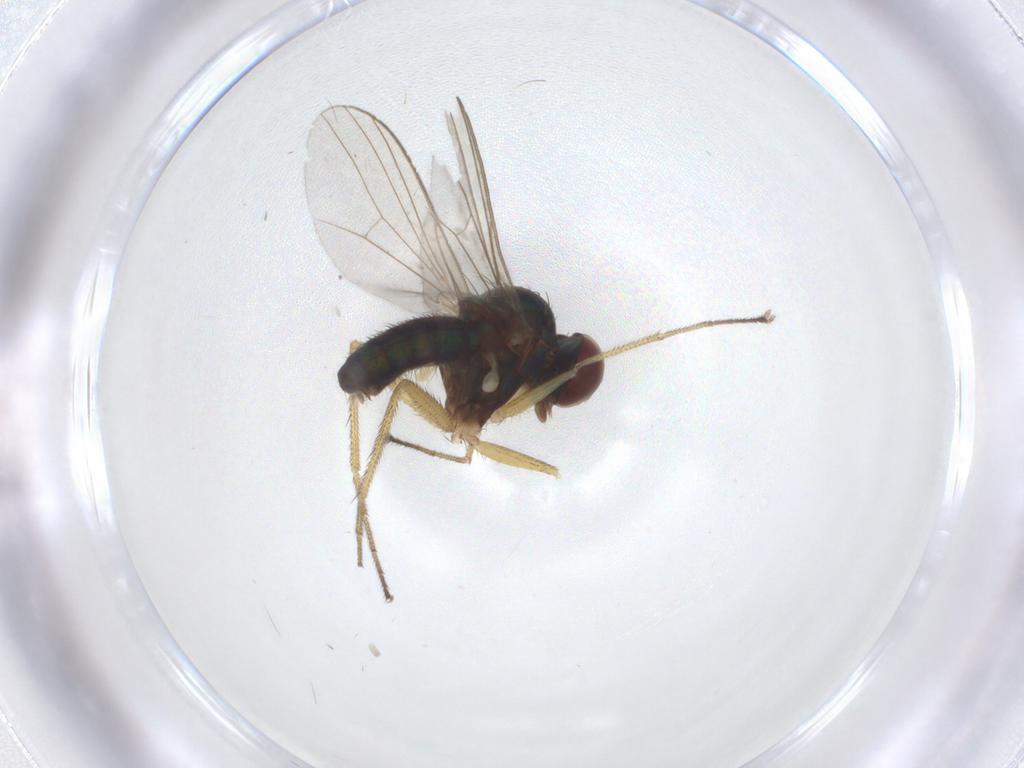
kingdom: Animalia
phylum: Arthropoda
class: Insecta
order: Diptera
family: Dolichopodidae
